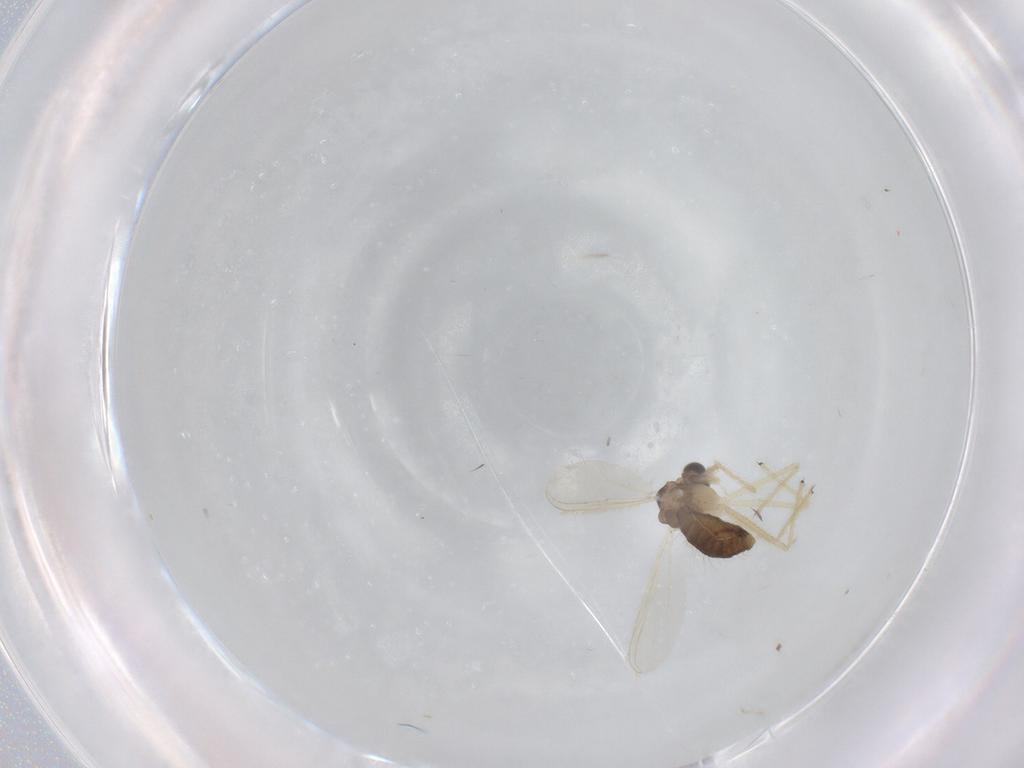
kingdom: Animalia
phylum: Arthropoda
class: Insecta
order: Diptera
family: Chironomidae
